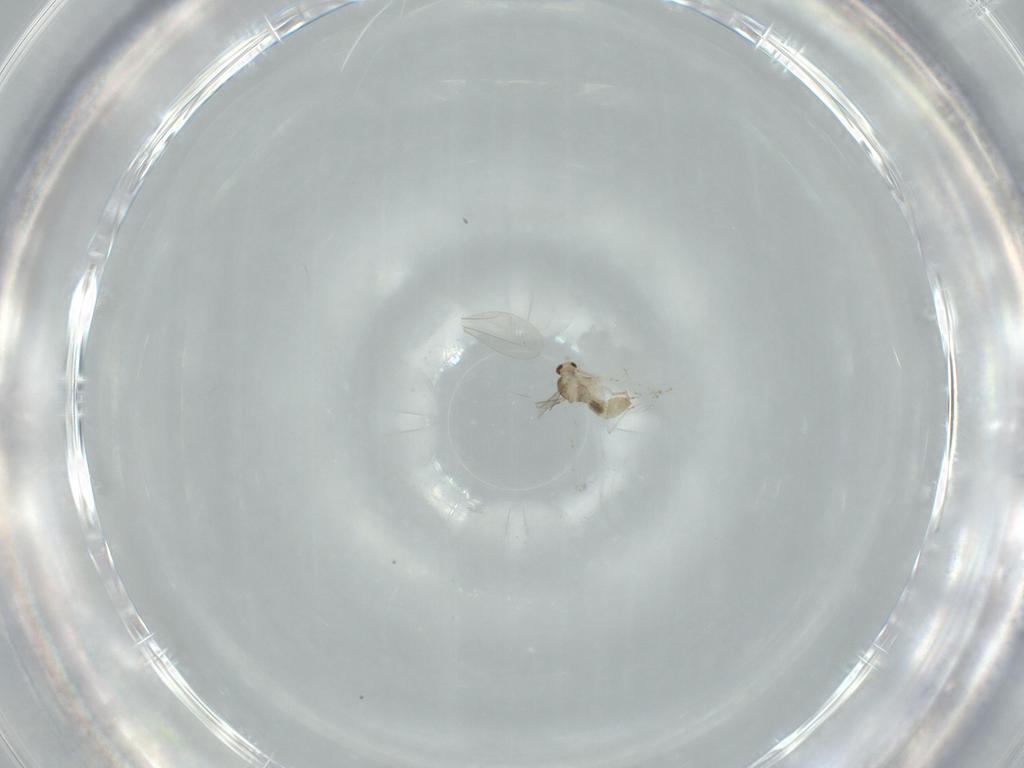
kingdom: Animalia
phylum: Arthropoda
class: Insecta
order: Diptera
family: Cecidomyiidae
